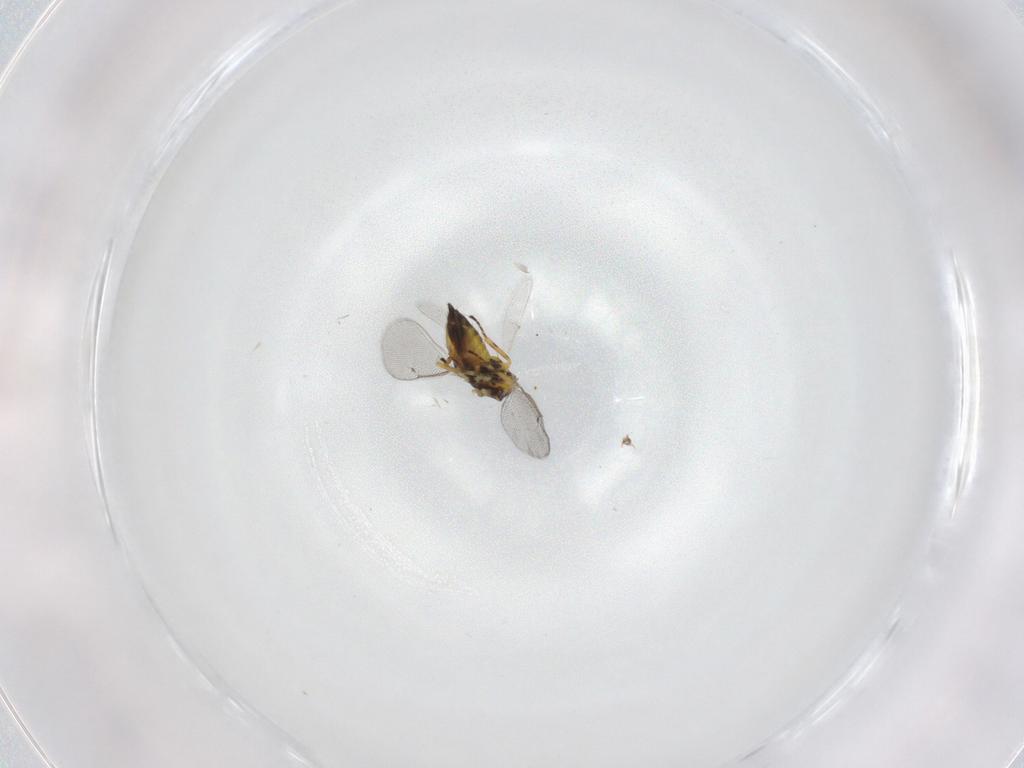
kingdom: Animalia
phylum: Arthropoda
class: Insecta
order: Hymenoptera
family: Eulophidae
